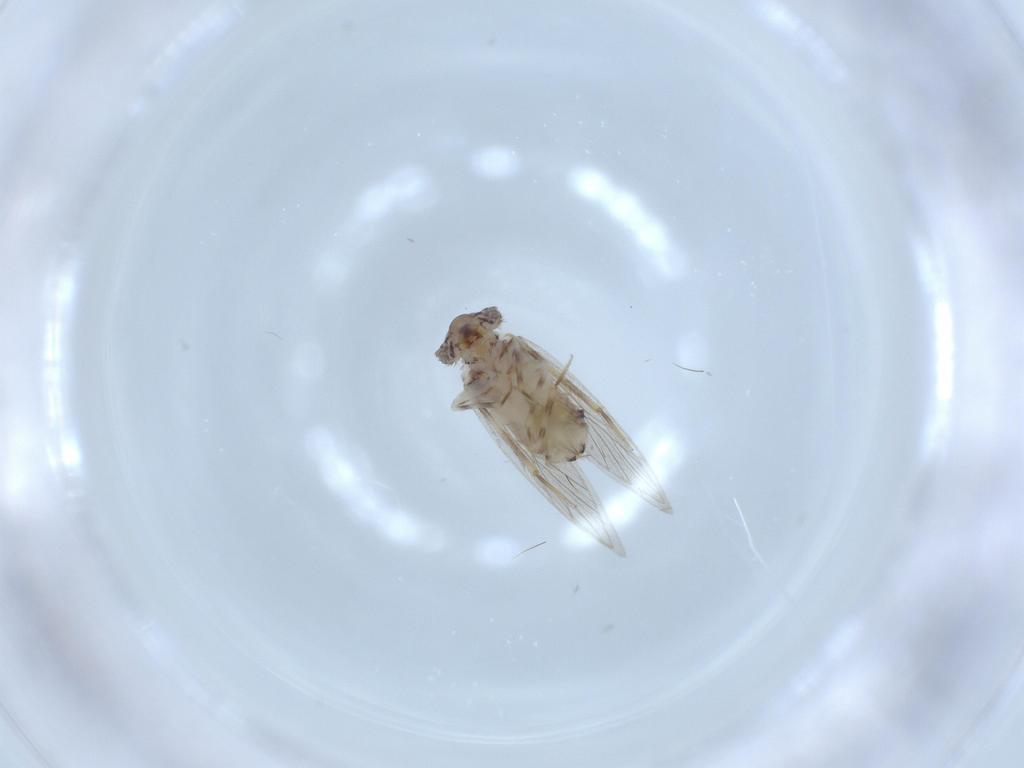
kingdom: Animalia
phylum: Arthropoda
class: Insecta
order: Psocodea
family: Lepidopsocidae
